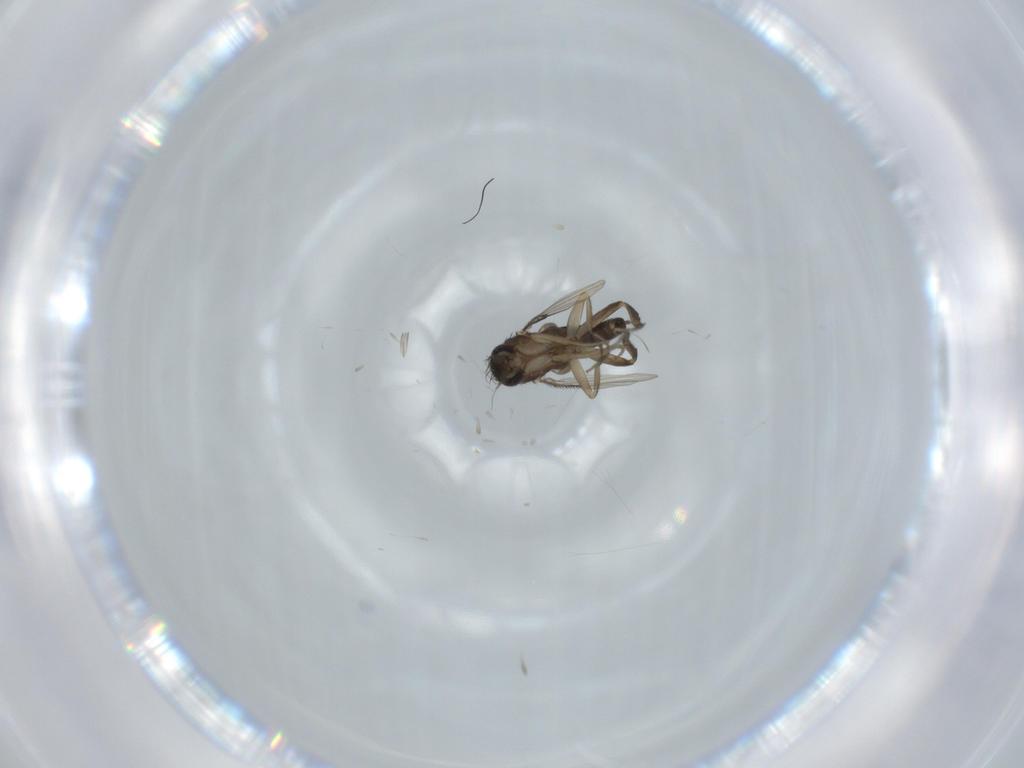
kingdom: Animalia
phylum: Arthropoda
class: Insecta
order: Diptera
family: Phoridae
